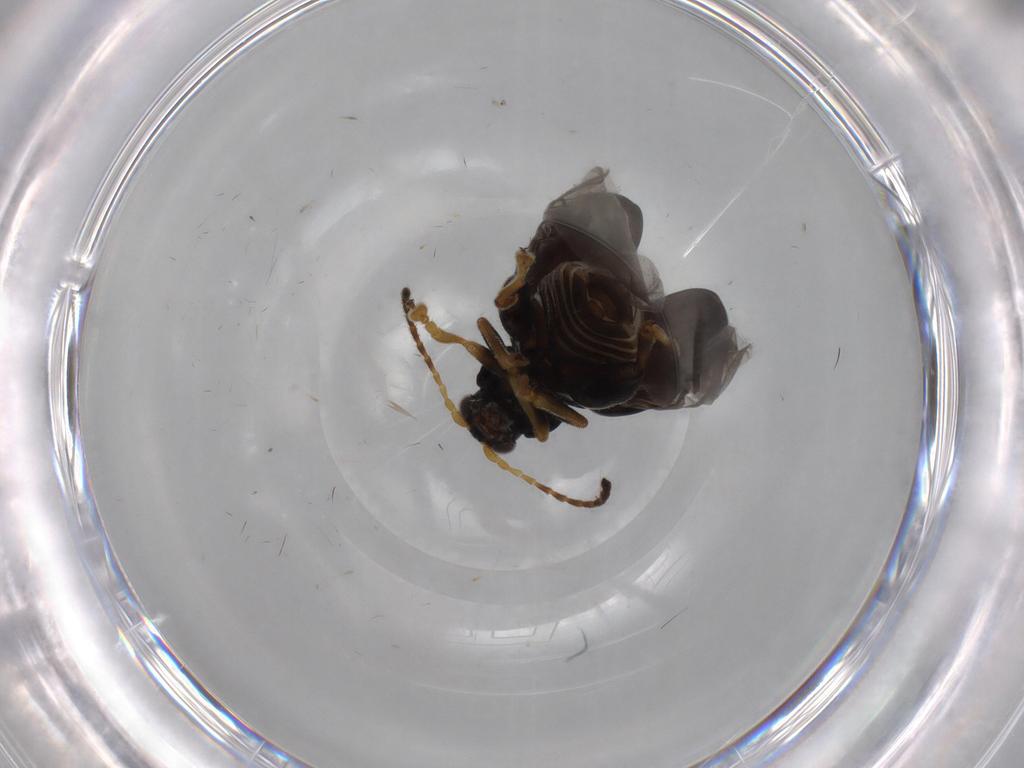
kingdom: Animalia
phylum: Arthropoda
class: Insecta
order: Coleoptera
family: Chrysomelidae
